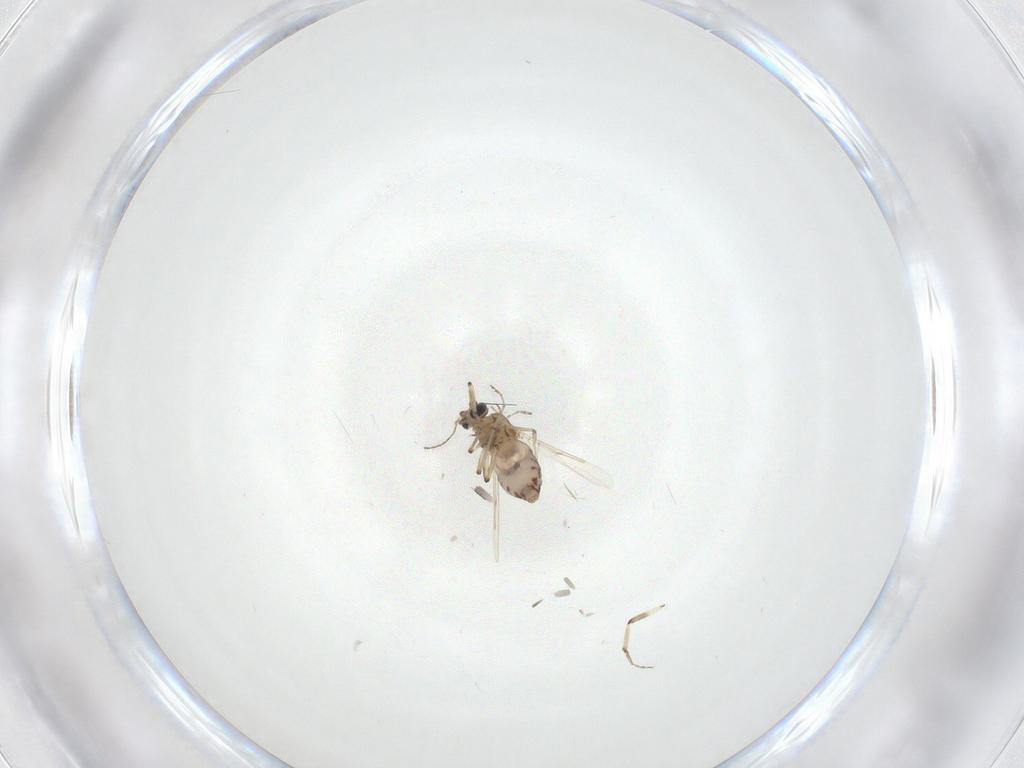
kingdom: Animalia
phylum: Arthropoda
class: Insecta
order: Diptera
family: Ceratopogonidae
